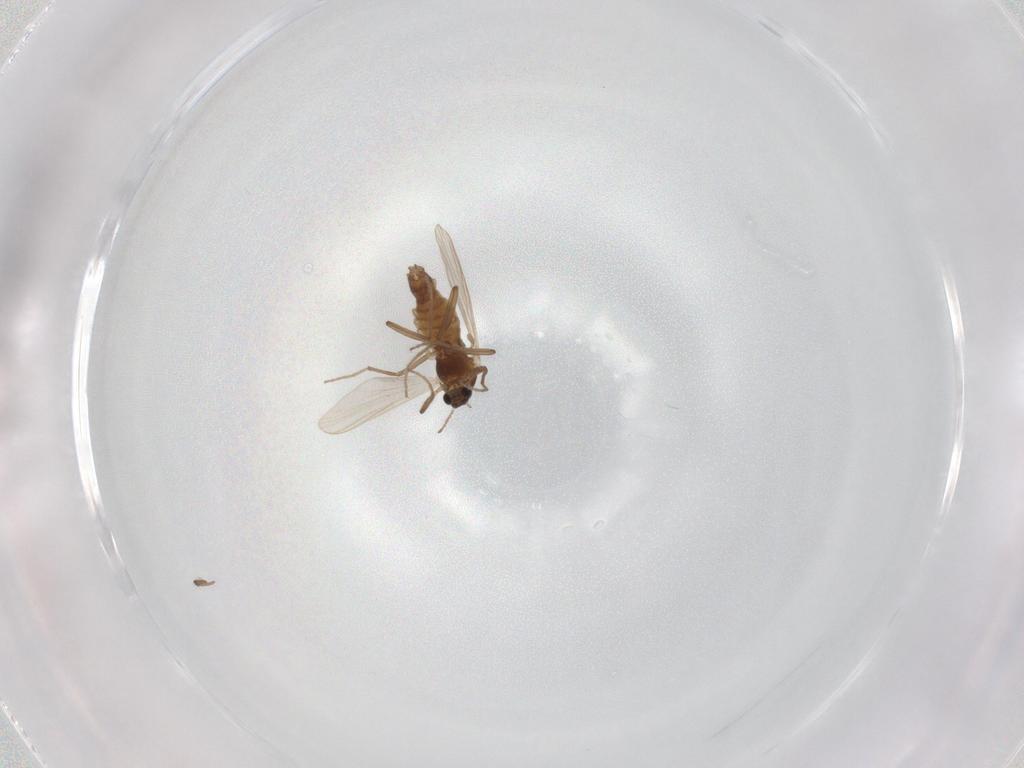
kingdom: Animalia
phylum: Arthropoda
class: Insecta
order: Diptera
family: Chironomidae
